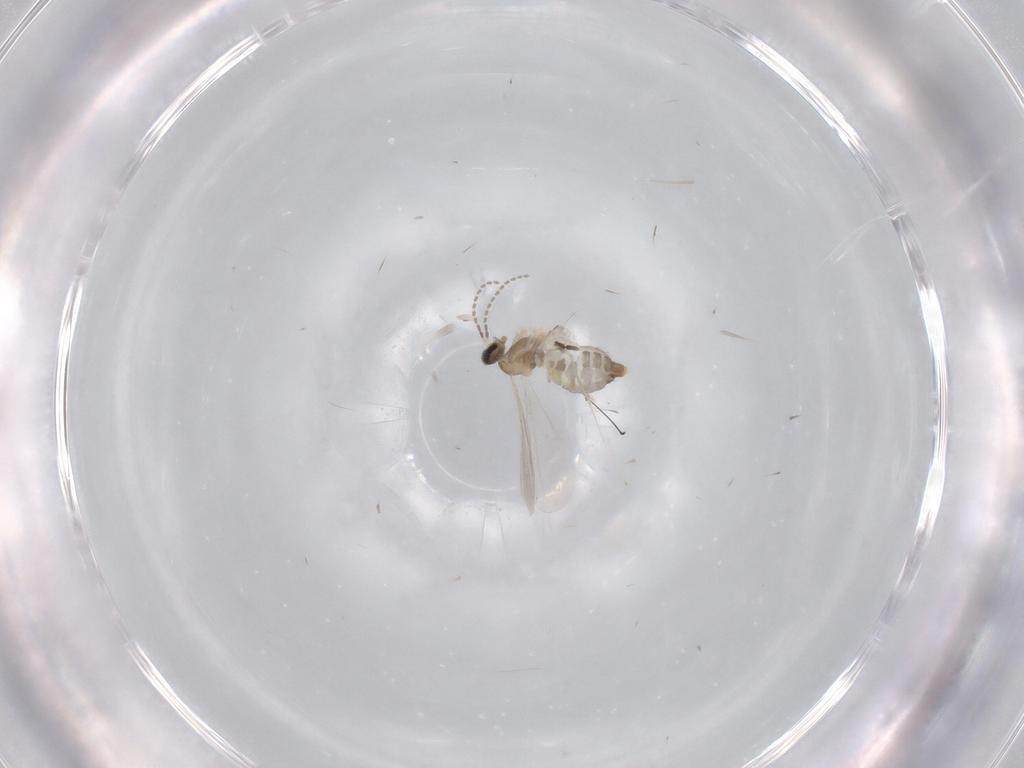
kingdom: Animalia
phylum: Arthropoda
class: Insecta
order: Diptera
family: Cecidomyiidae
